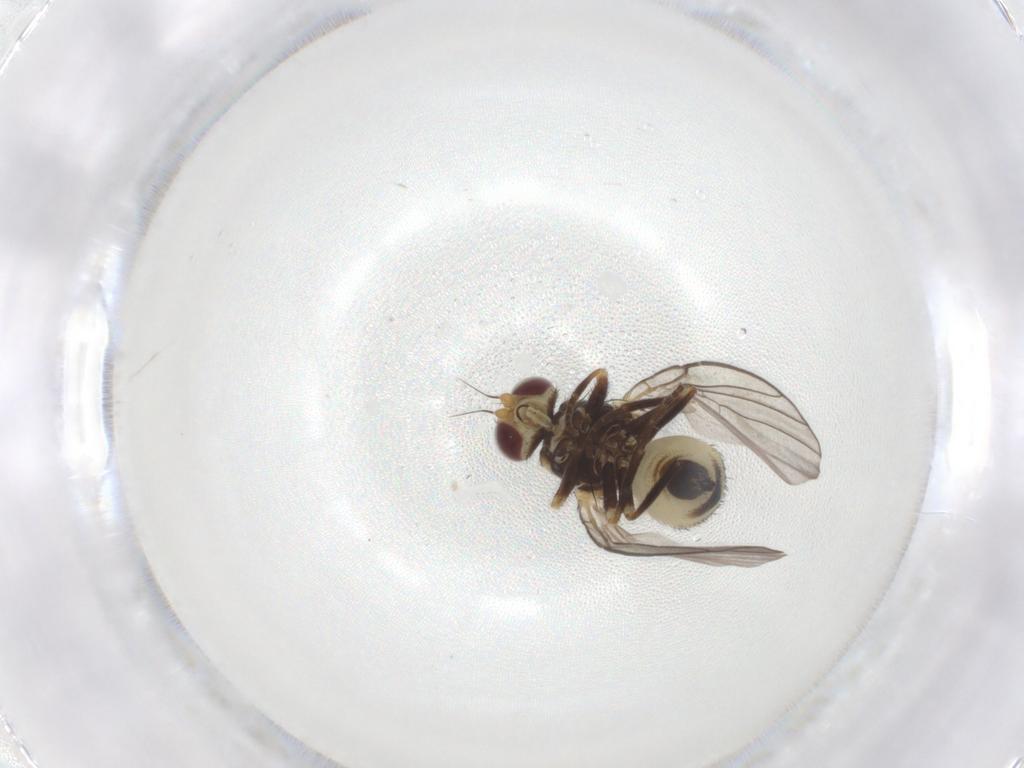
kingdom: Animalia
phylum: Arthropoda
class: Insecta
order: Diptera
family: Agromyzidae
